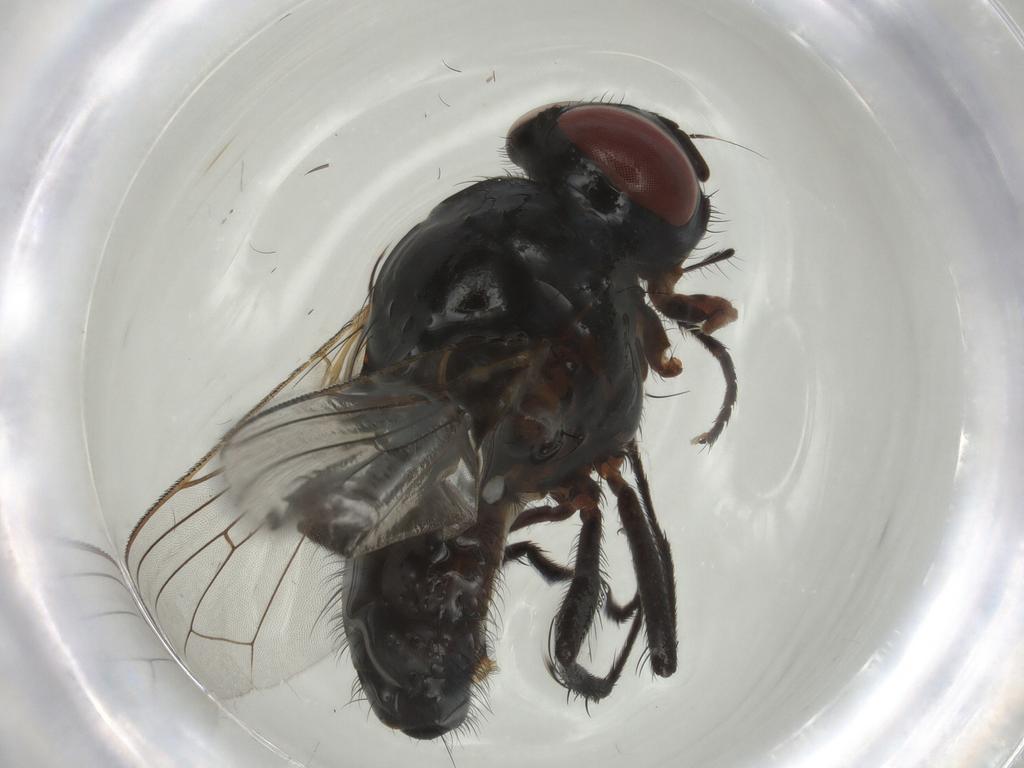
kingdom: Animalia
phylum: Arthropoda
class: Insecta
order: Diptera
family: Anthomyiidae
